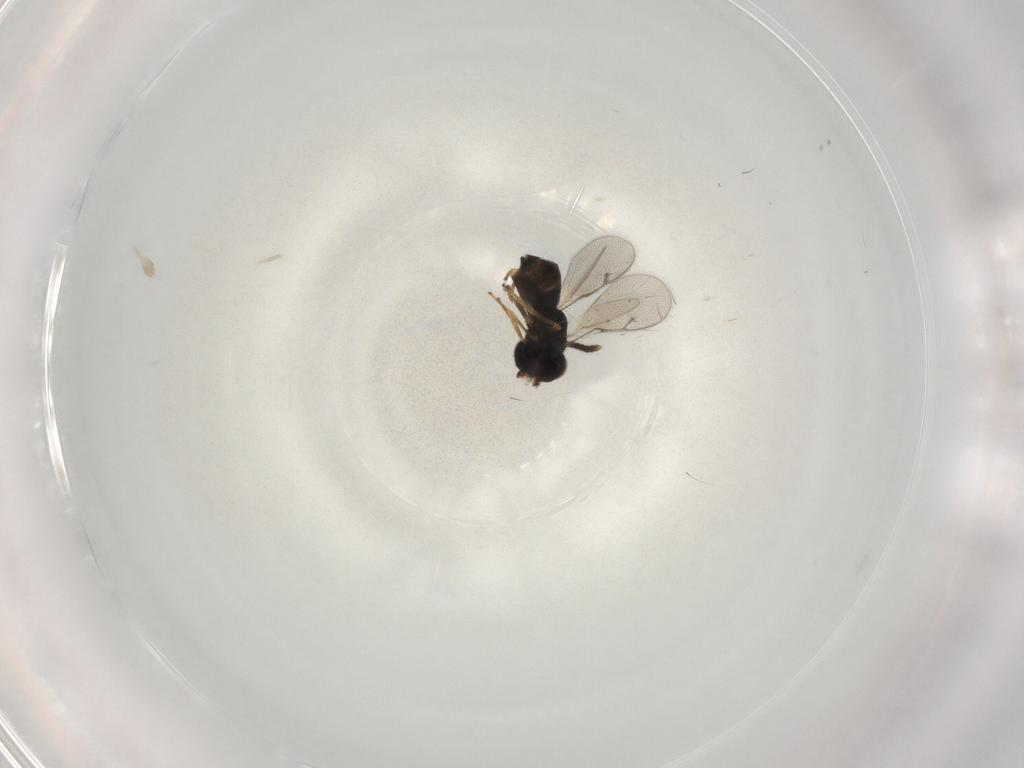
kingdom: Animalia
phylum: Arthropoda
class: Insecta
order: Hymenoptera
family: Pirenidae
